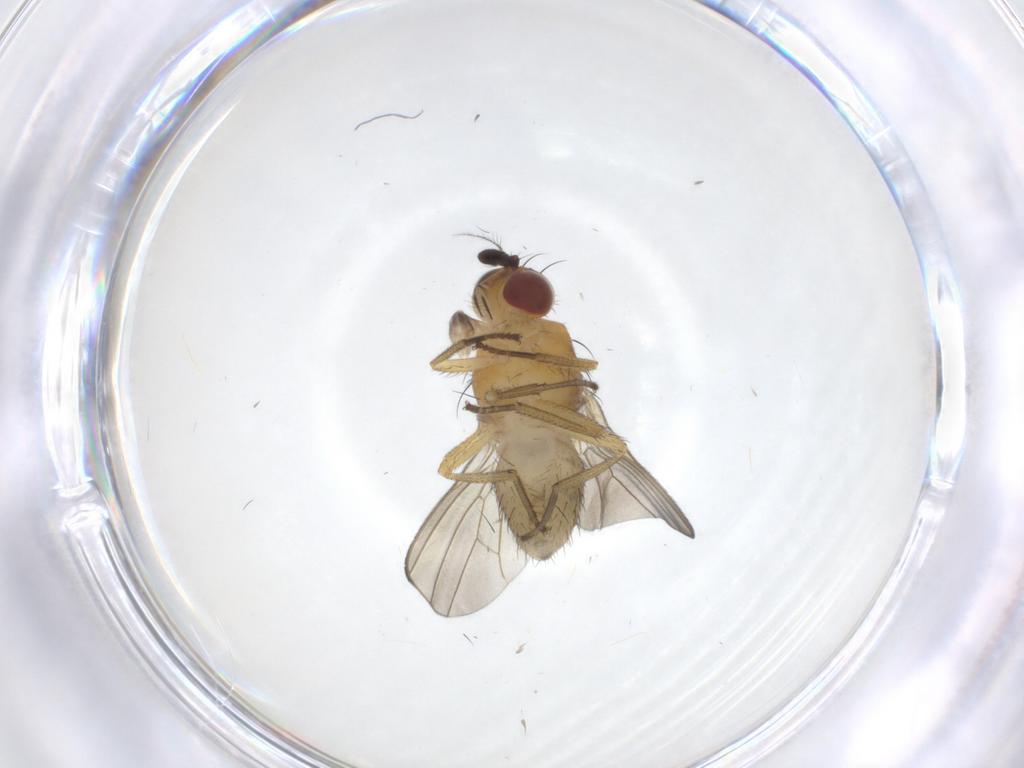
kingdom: Animalia
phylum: Arthropoda
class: Insecta
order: Diptera
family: Sciaridae
